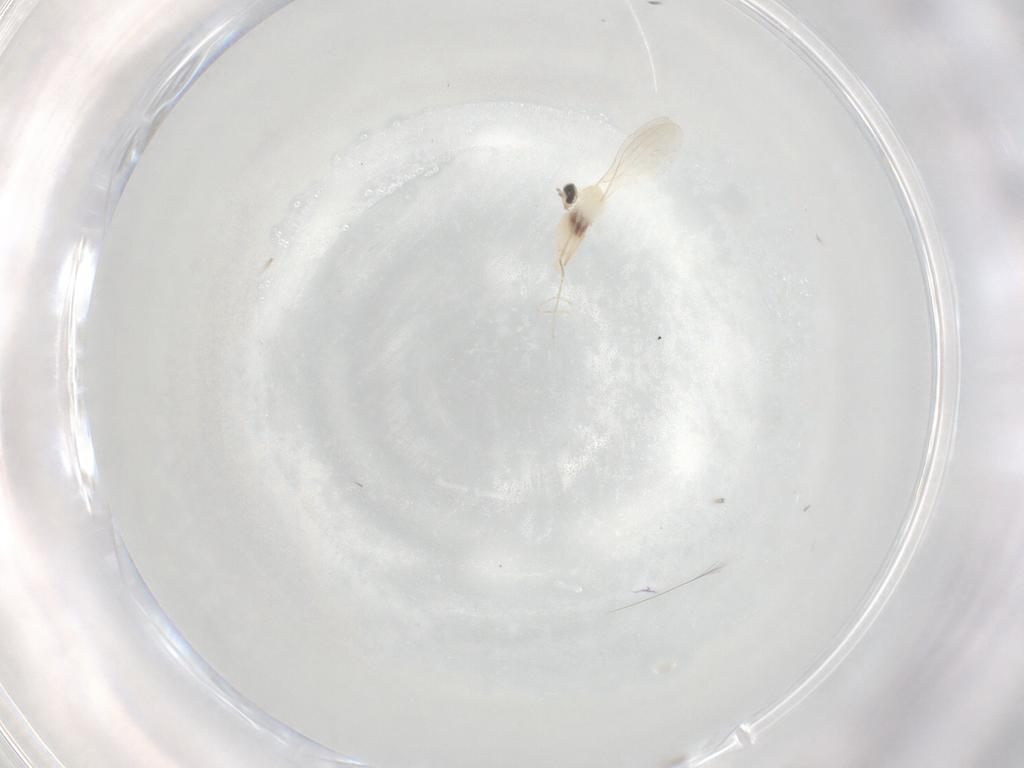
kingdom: Animalia
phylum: Arthropoda
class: Insecta
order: Diptera
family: Cecidomyiidae
